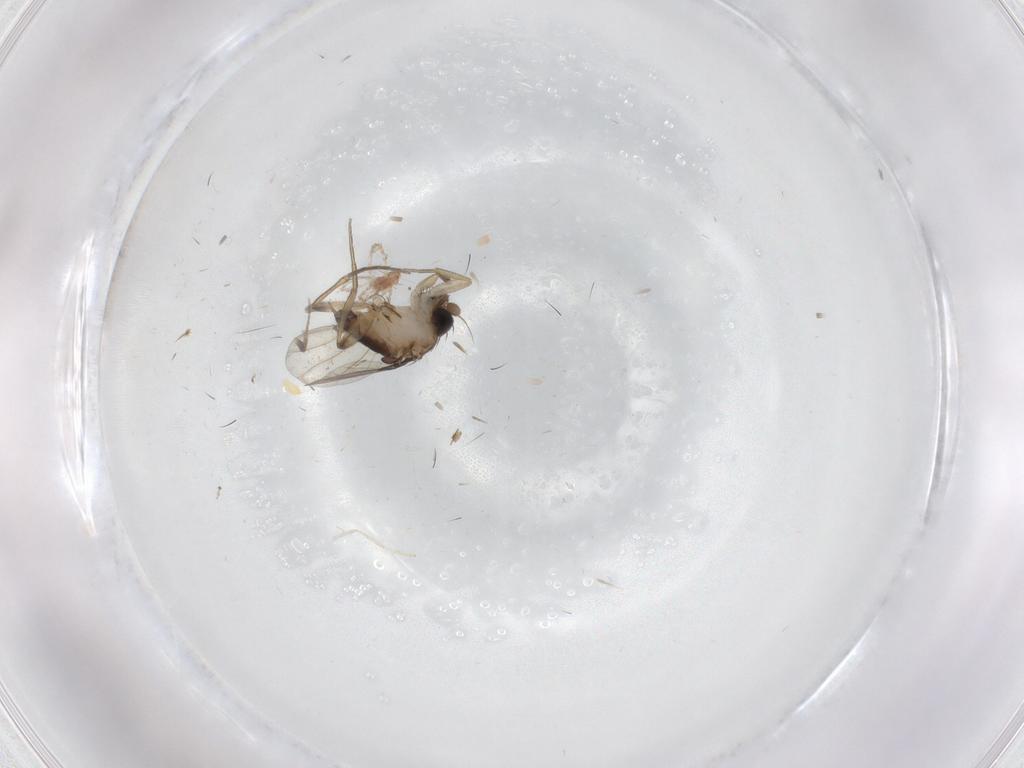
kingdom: Animalia
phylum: Arthropoda
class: Insecta
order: Diptera
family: Phoridae
